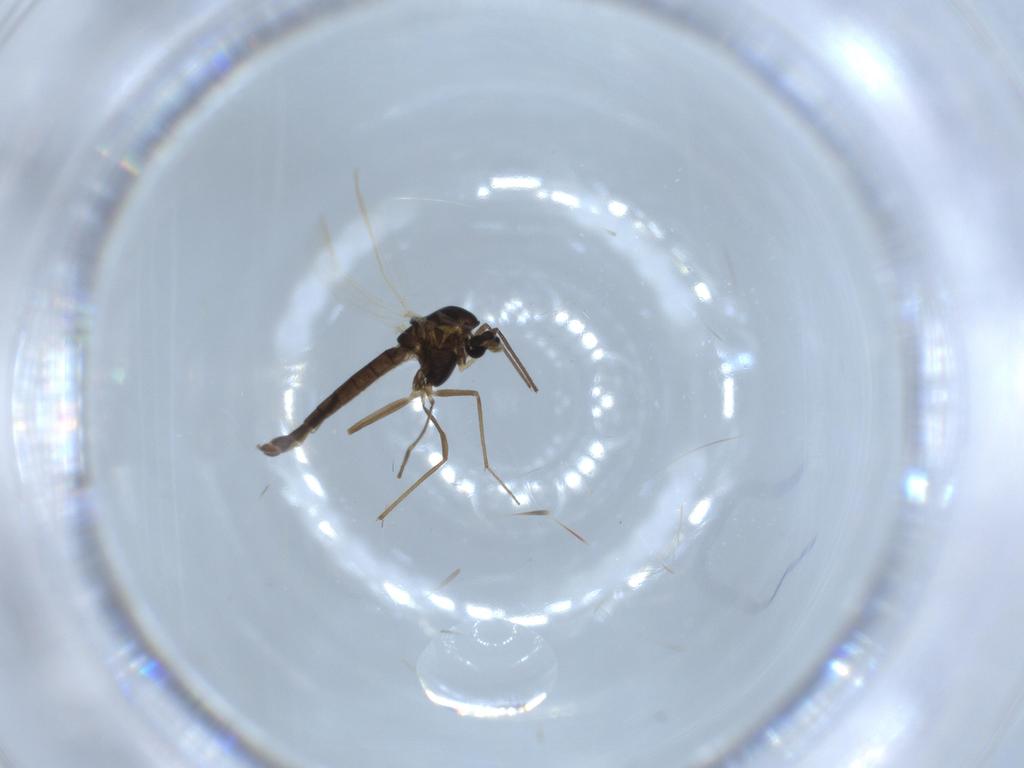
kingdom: Animalia
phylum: Arthropoda
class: Insecta
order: Diptera
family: Chironomidae
